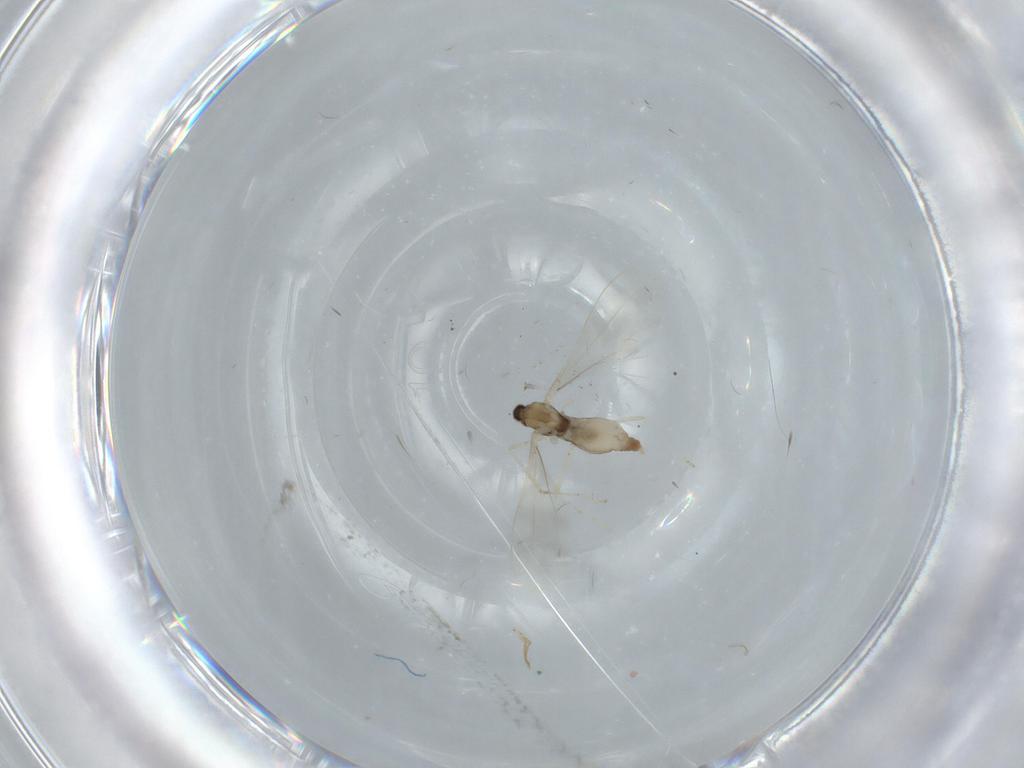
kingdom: Animalia
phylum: Arthropoda
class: Insecta
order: Diptera
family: Cecidomyiidae
